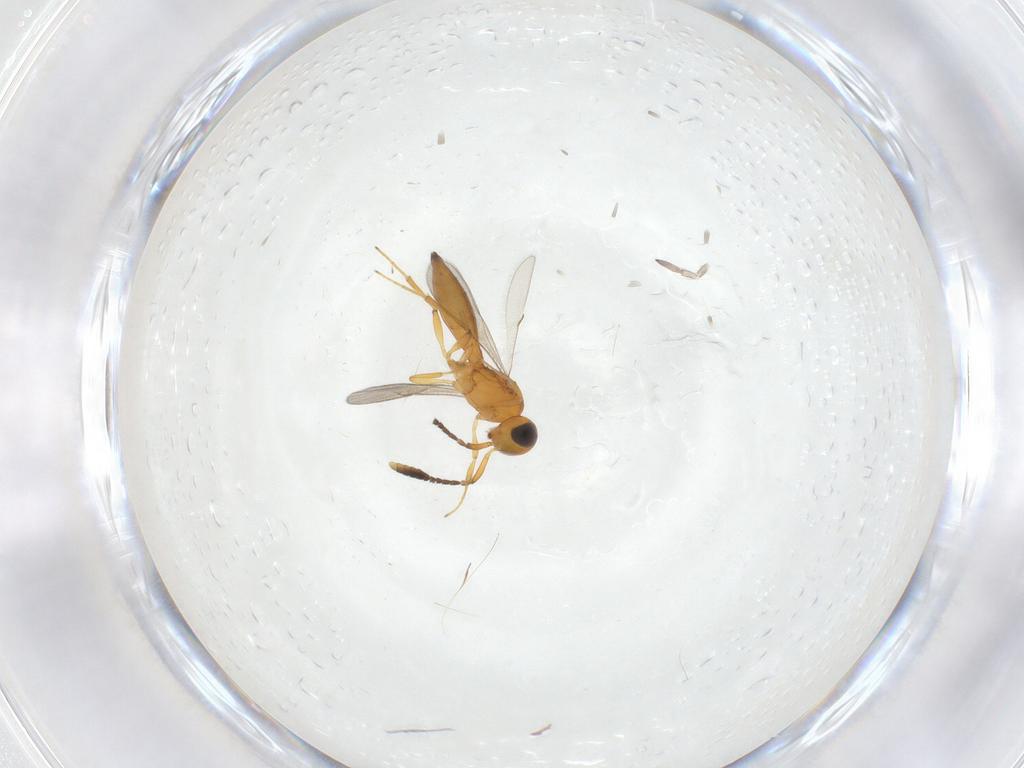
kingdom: Animalia
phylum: Arthropoda
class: Insecta
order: Hymenoptera
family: Scelionidae
